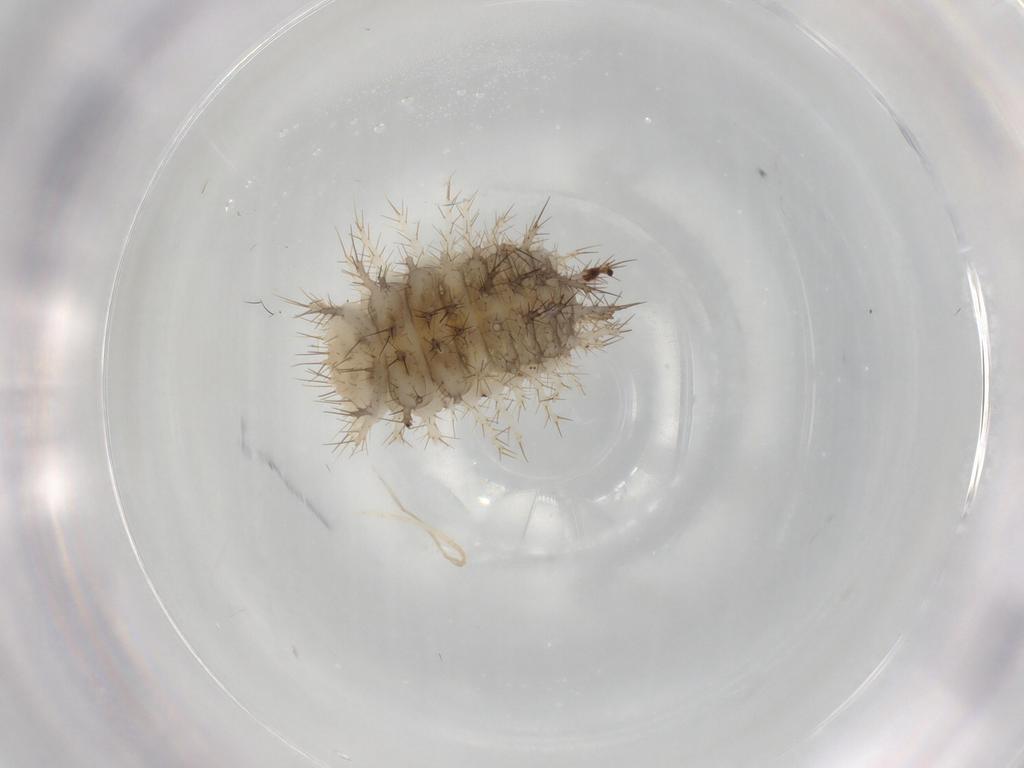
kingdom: Animalia
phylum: Arthropoda
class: Insecta
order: Coleoptera
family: Coccinellidae
